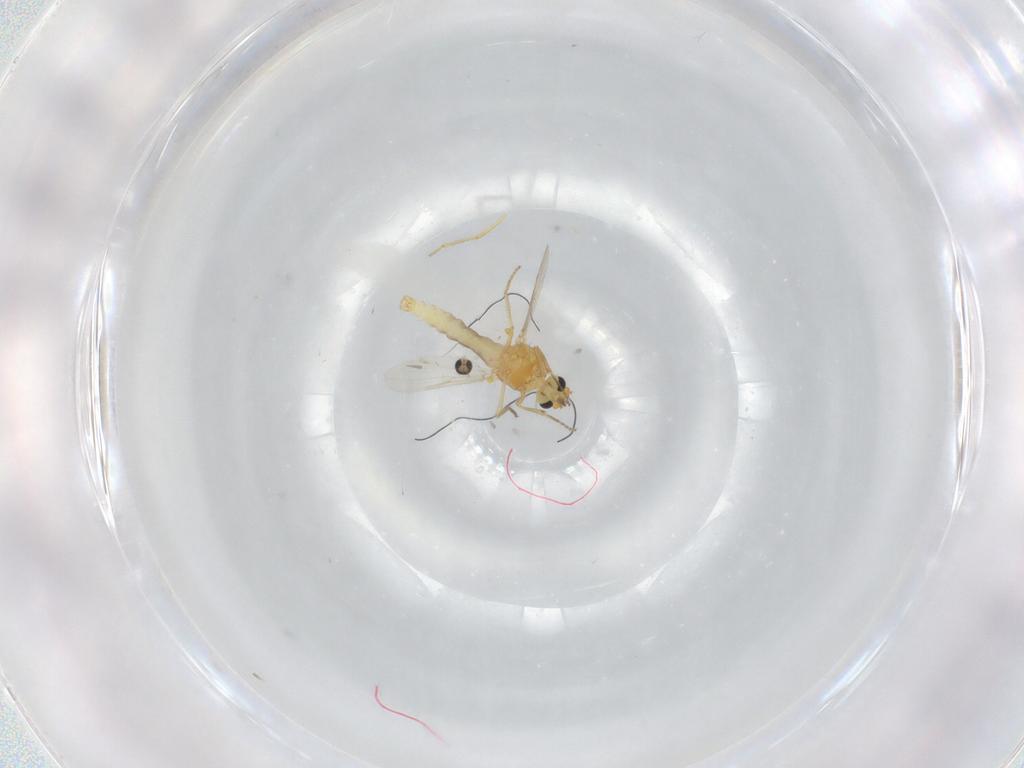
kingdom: Animalia
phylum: Arthropoda
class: Insecta
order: Diptera
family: Ceratopogonidae
